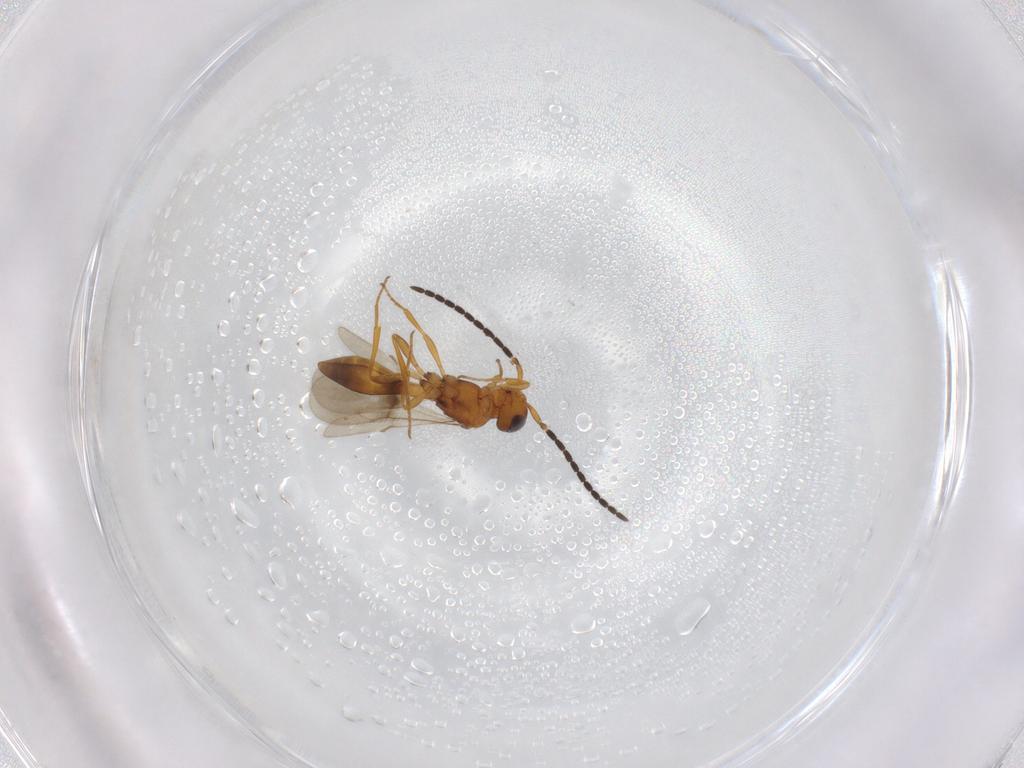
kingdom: Animalia
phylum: Arthropoda
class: Insecta
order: Hymenoptera
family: Scelionidae
